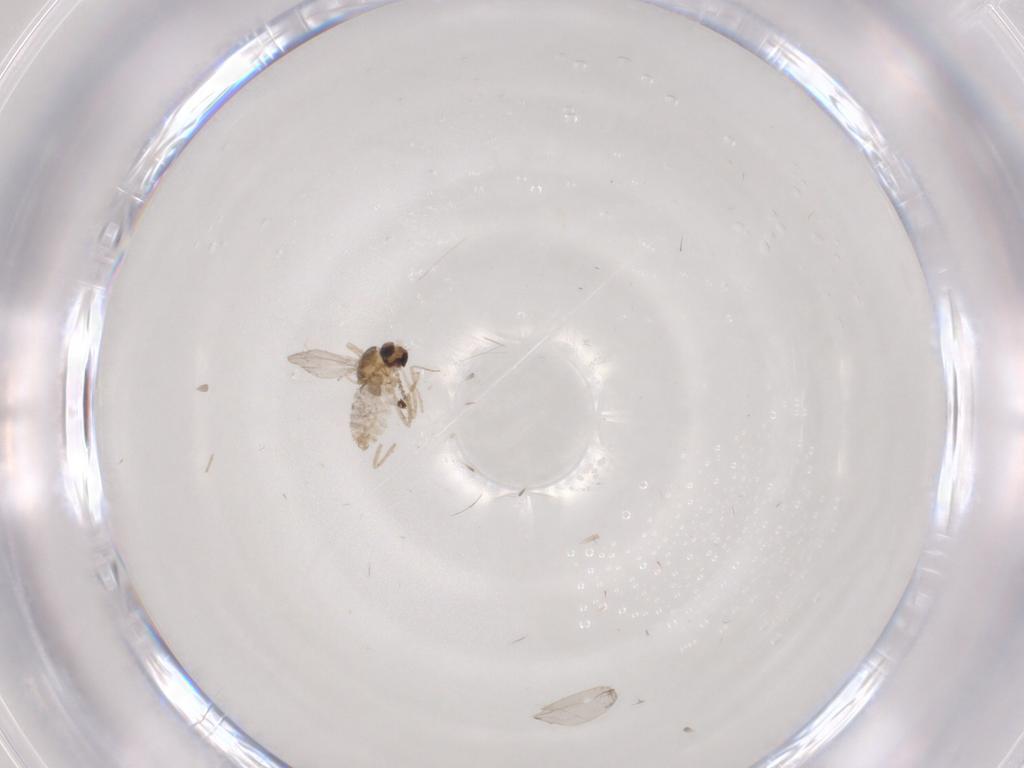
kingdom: Animalia
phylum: Arthropoda
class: Insecta
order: Diptera
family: Cecidomyiidae
